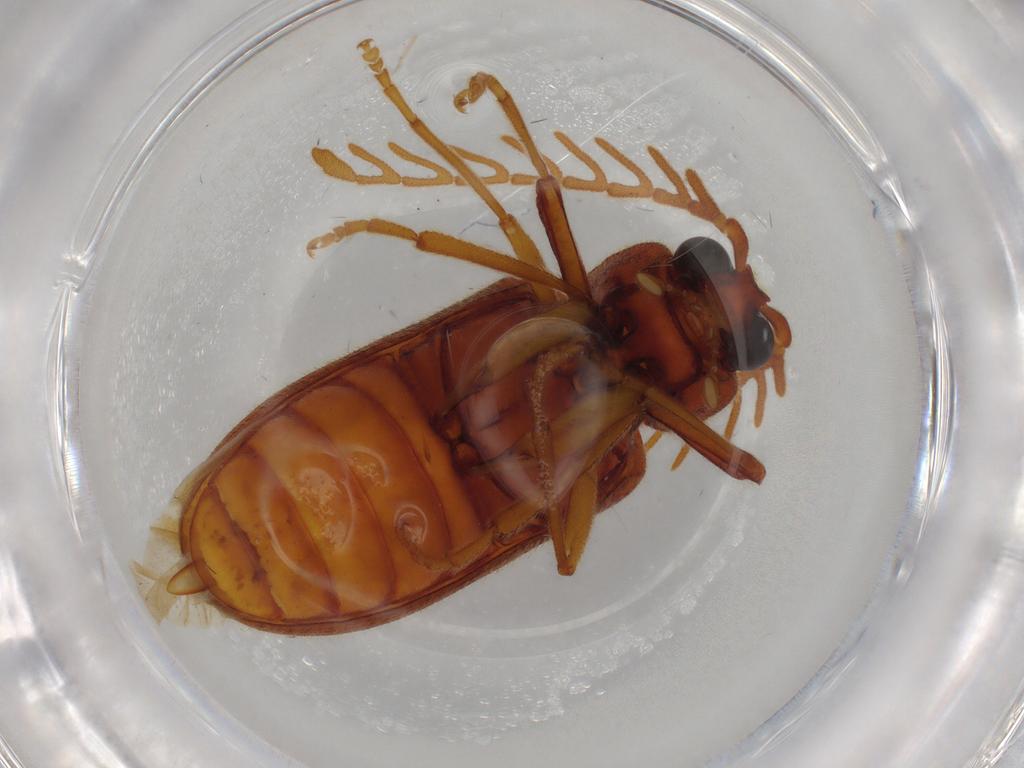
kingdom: Animalia
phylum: Arthropoda
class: Insecta
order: Coleoptera
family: Cerophytidae
